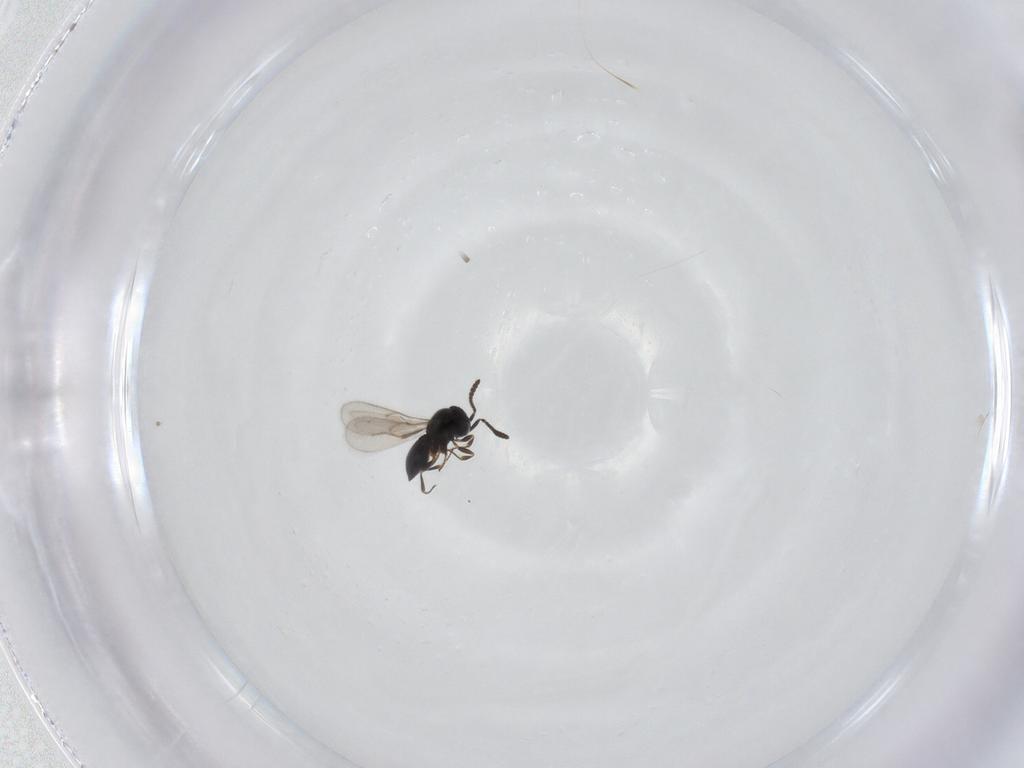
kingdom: Animalia
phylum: Arthropoda
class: Insecta
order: Hymenoptera
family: Scelionidae
